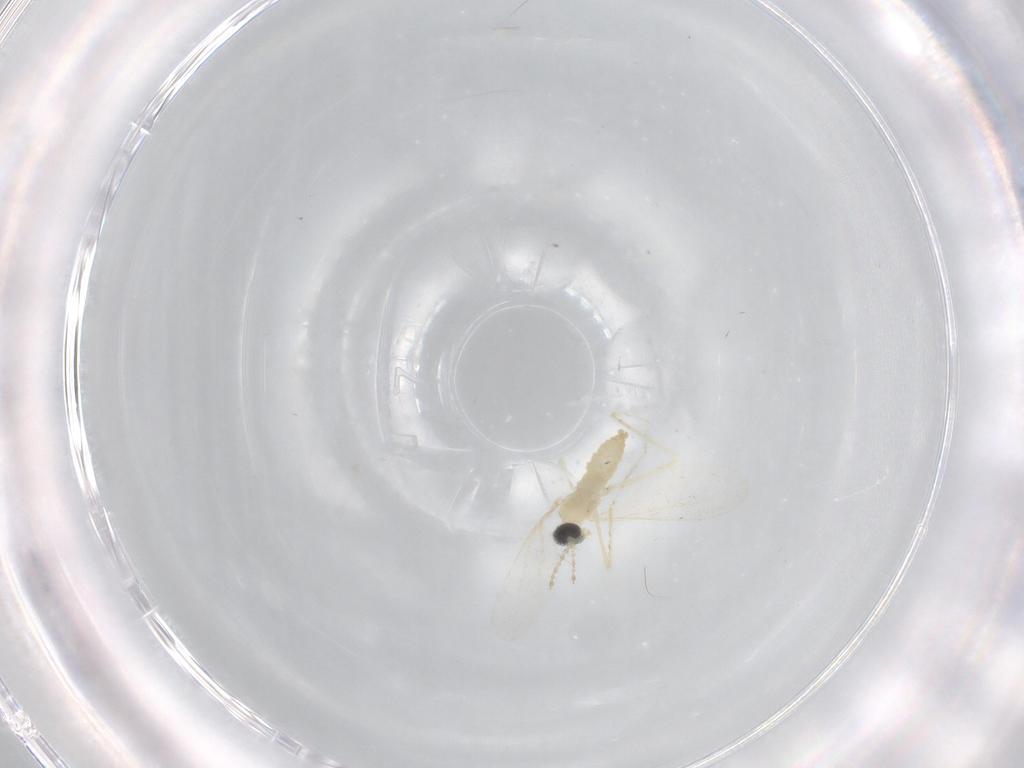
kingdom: Animalia
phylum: Arthropoda
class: Insecta
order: Diptera
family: Cecidomyiidae
